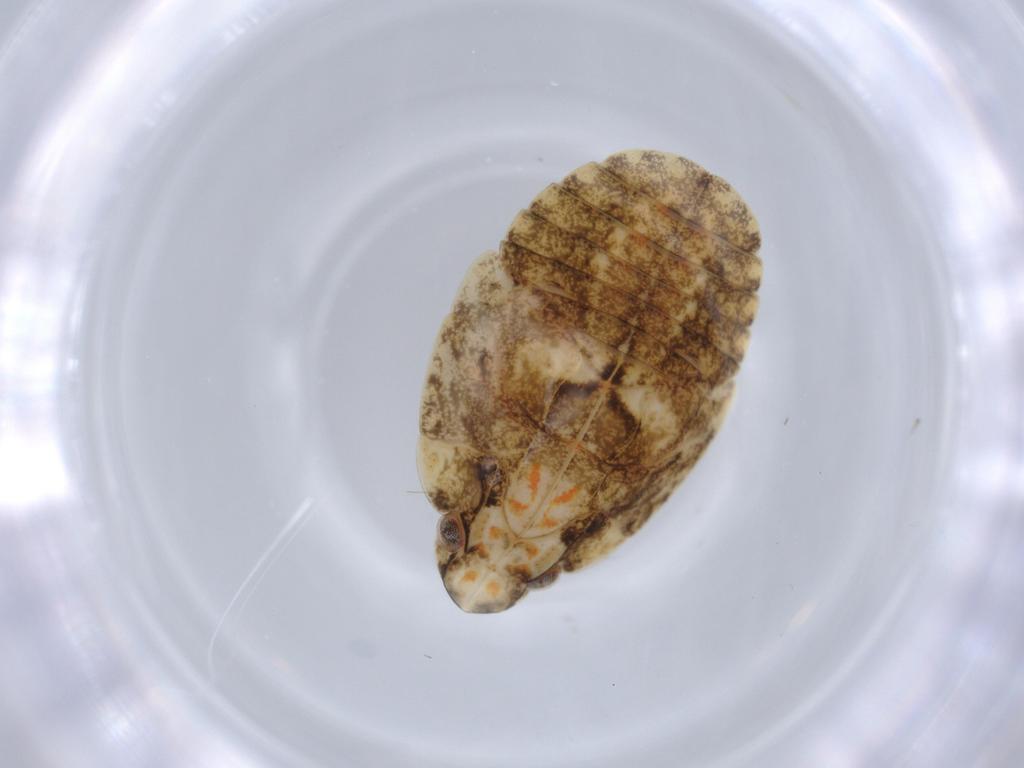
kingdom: Animalia
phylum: Arthropoda
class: Insecta
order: Hemiptera
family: Flatidae
